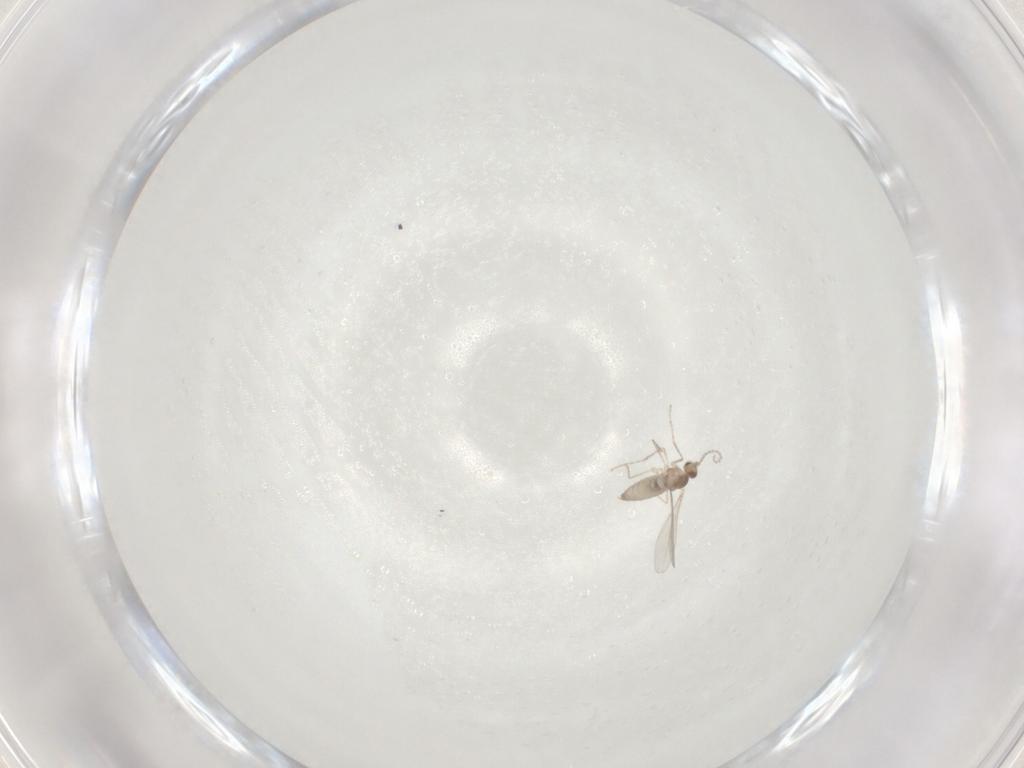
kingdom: Animalia
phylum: Arthropoda
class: Insecta
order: Diptera
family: Cecidomyiidae
